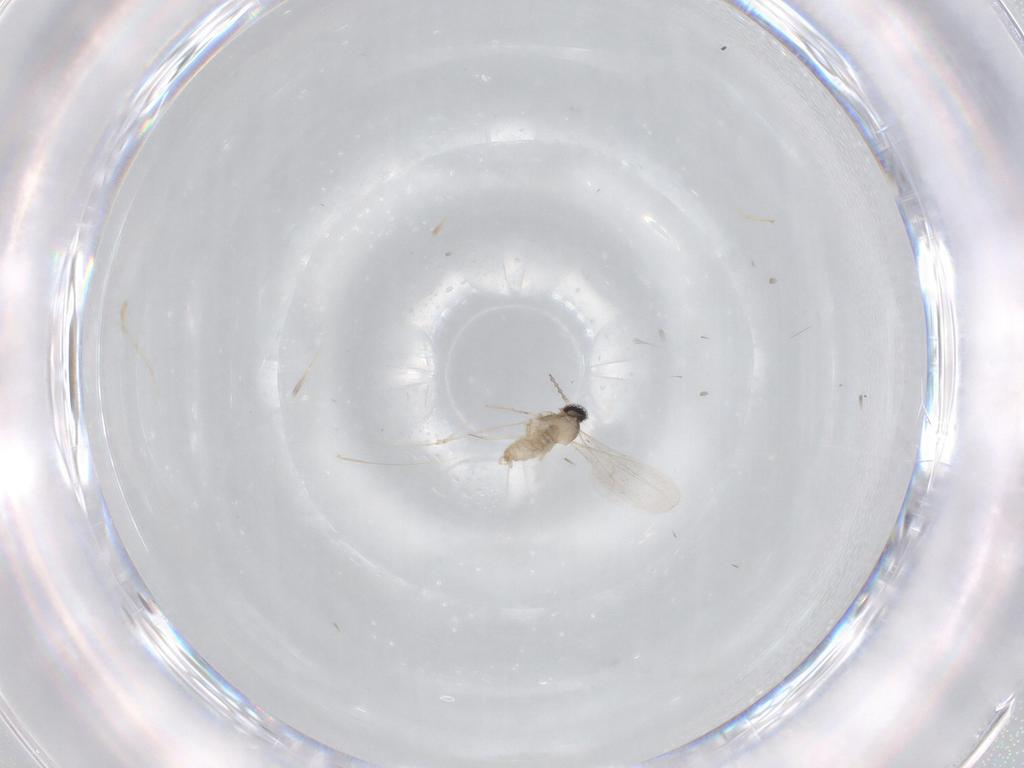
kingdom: Animalia
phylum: Arthropoda
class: Insecta
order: Diptera
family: Cecidomyiidae
